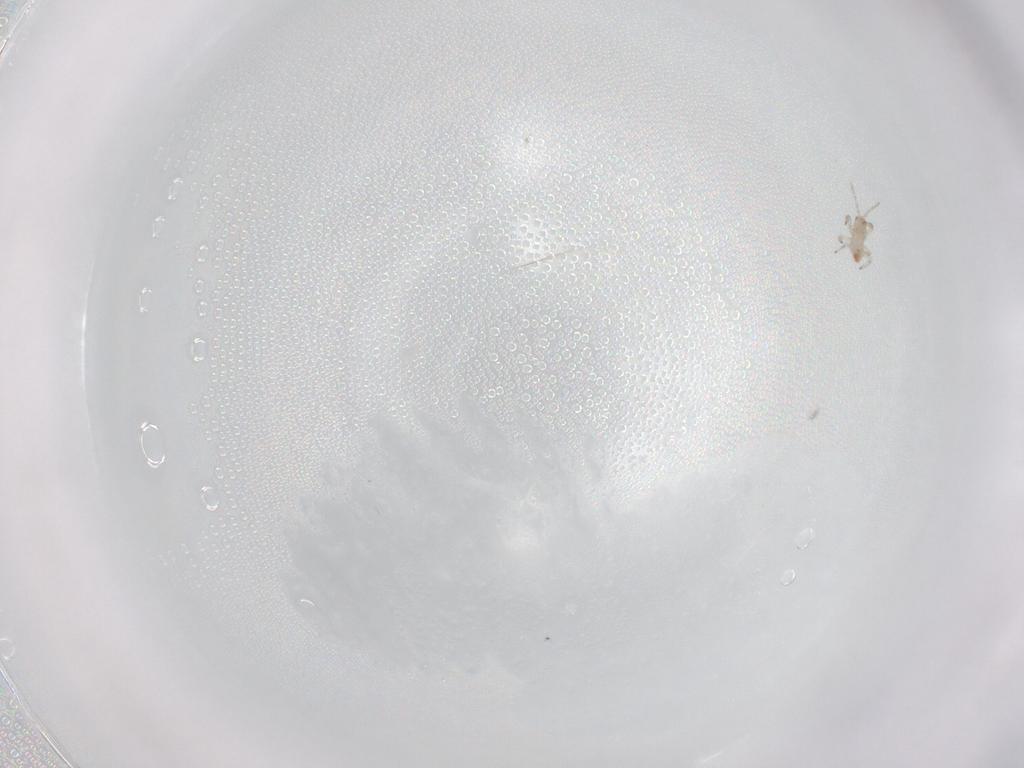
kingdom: Animalia
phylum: Arthropoda
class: Insecta
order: Thysanoptera
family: Aeolothripidae
